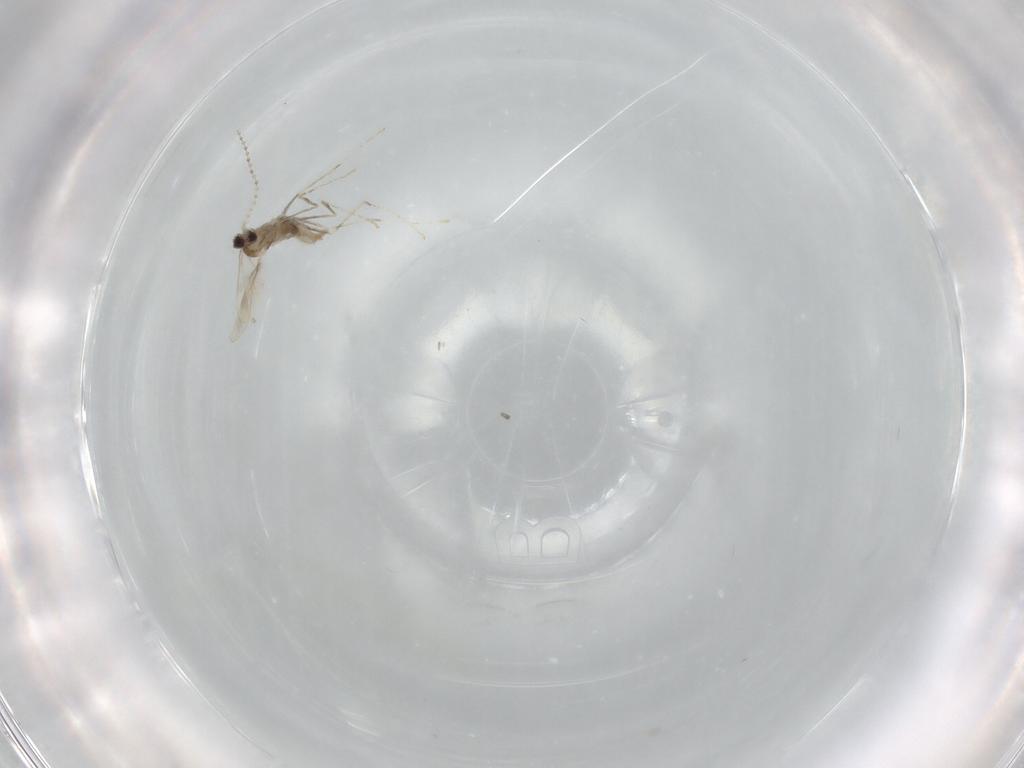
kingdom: Animalia
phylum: Arthropoda
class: Insecta
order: Diptera
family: Cecidomyiidae
